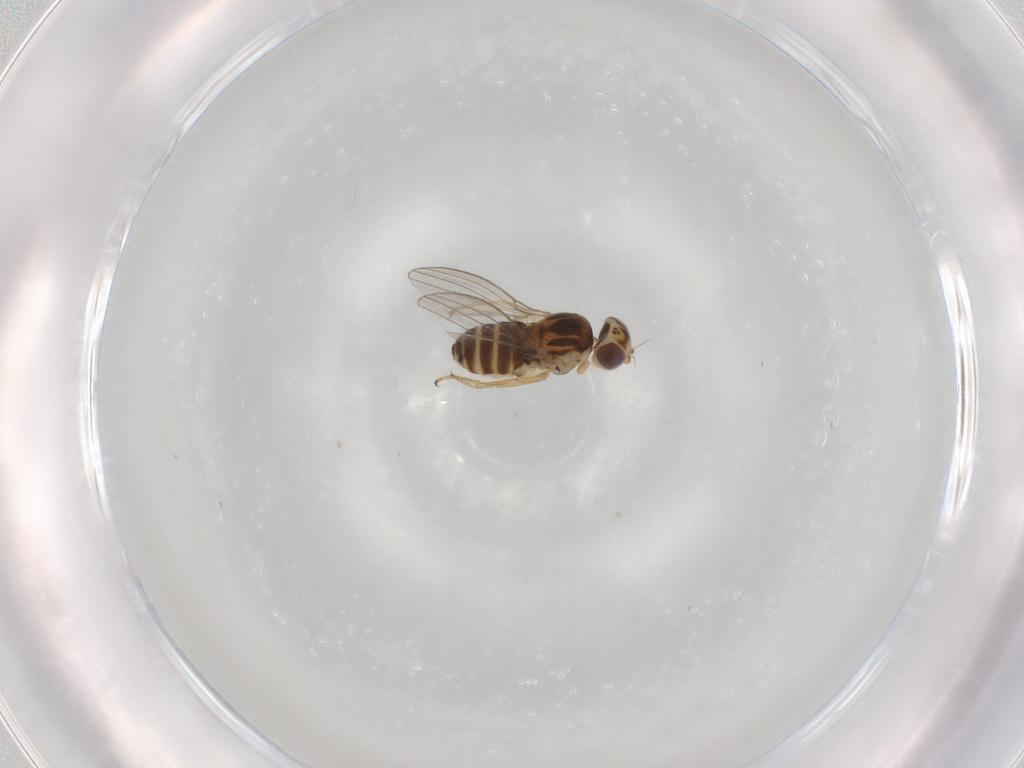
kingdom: Animalia
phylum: Arthropoda
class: Insecta
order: Diptera
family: Chyromyidae
